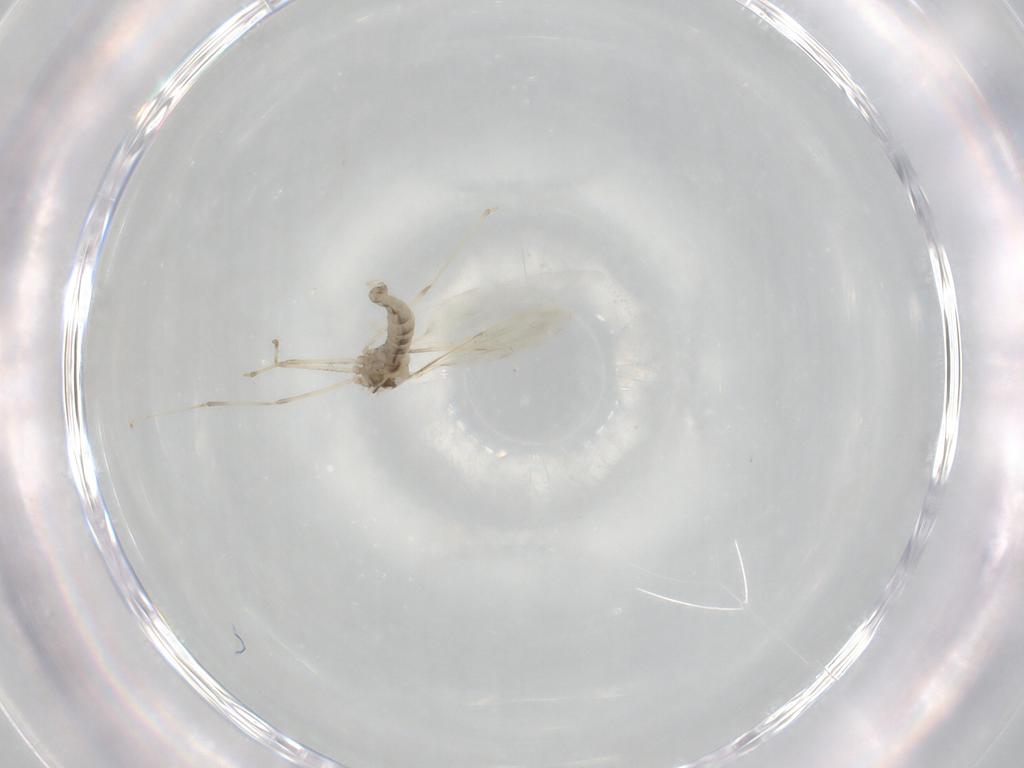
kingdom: Animalia
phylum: Arthropoda
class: Insecta
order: Diptera
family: Cecidomyiidae
